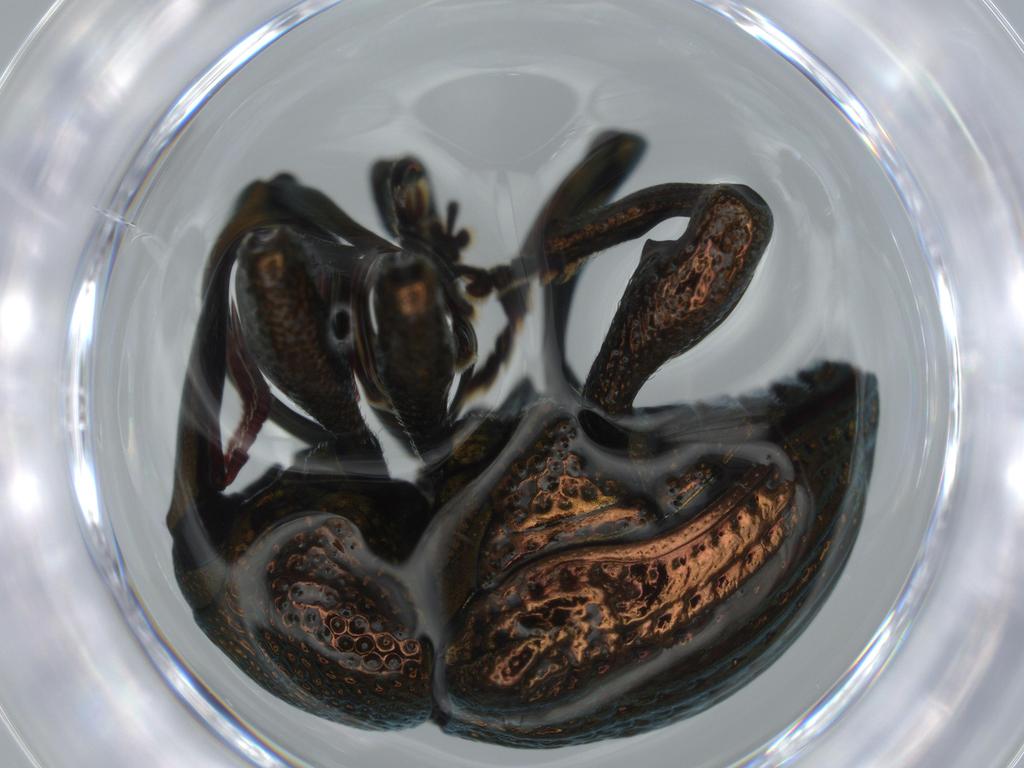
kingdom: Animalia
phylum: Arthropoda
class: Insecta
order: Coleoptera
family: Curculionidae
